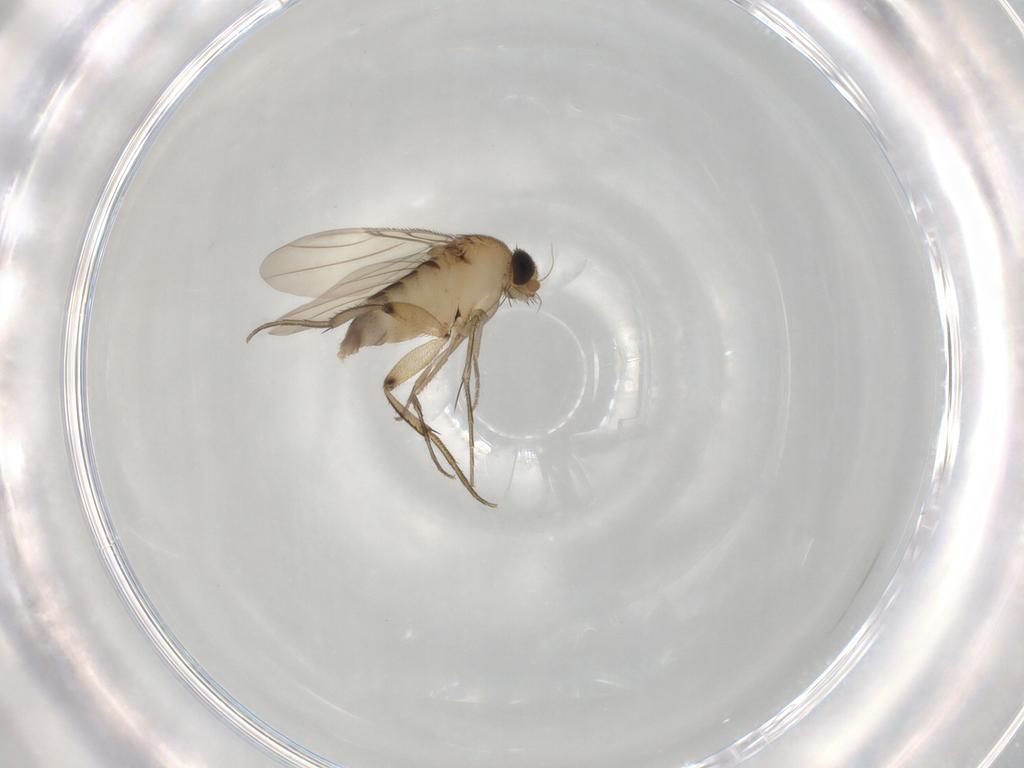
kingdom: Animalia
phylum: Arthropoda
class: Insecta
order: Diptera
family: Phoridae
